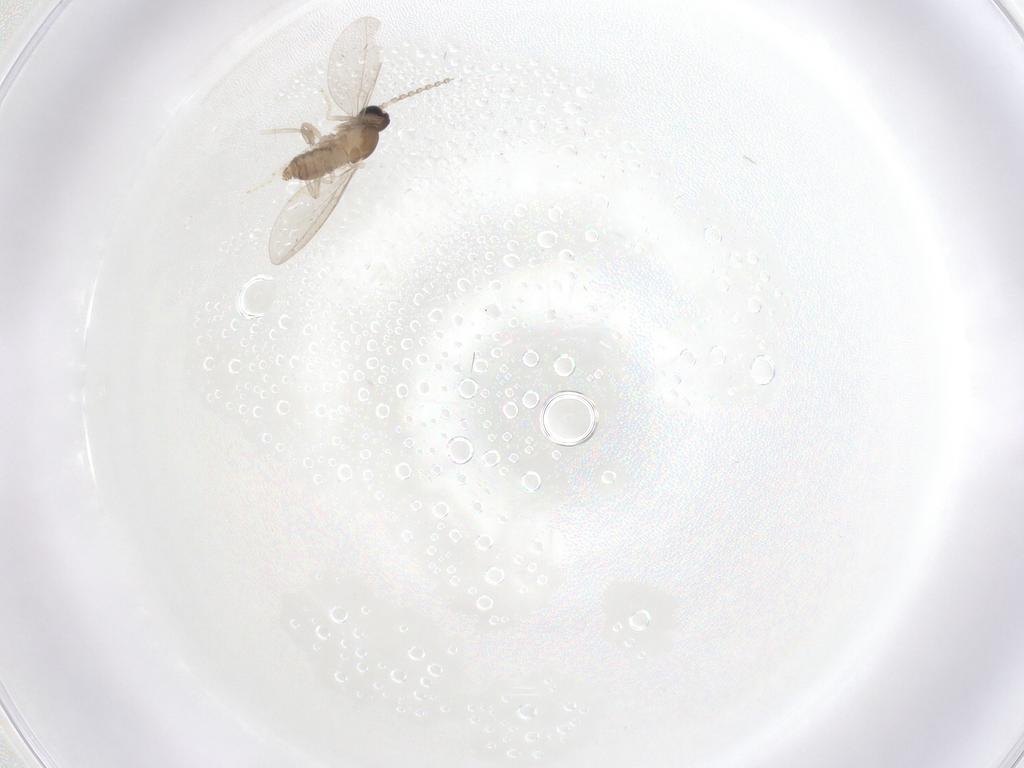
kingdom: Animalia
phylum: Arthropoda
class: Insecta
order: Diptera
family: Cecidomyiidae
